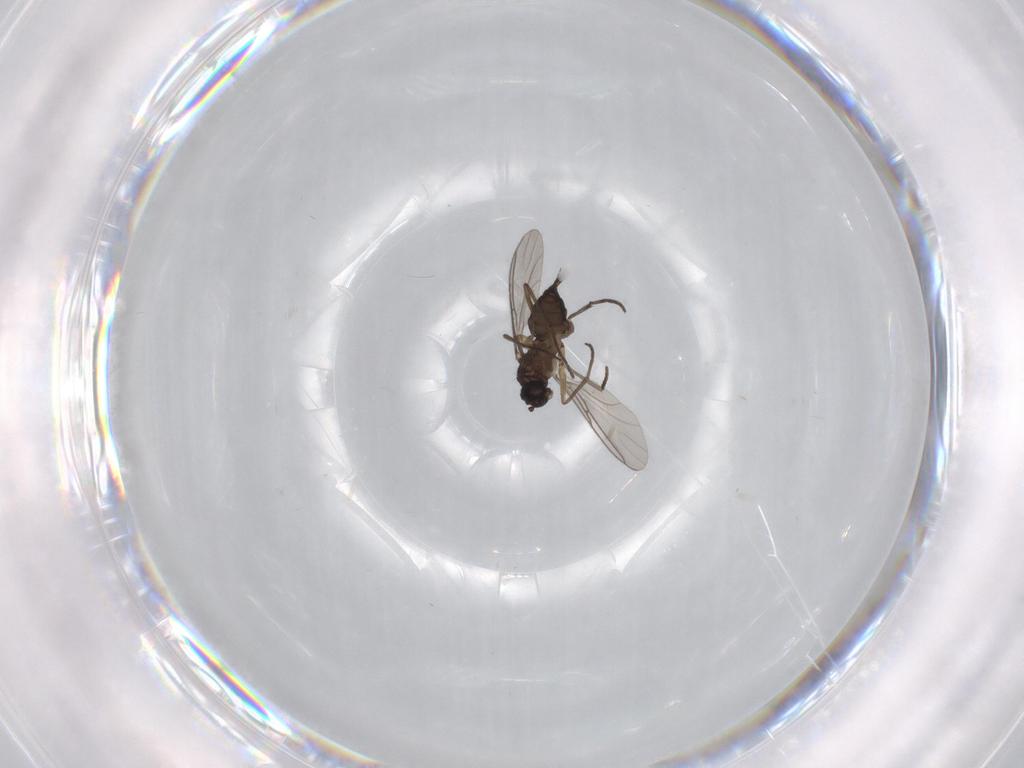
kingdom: Animalia
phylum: Arthropoda
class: Insecta
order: Diptera
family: Sciaridae
